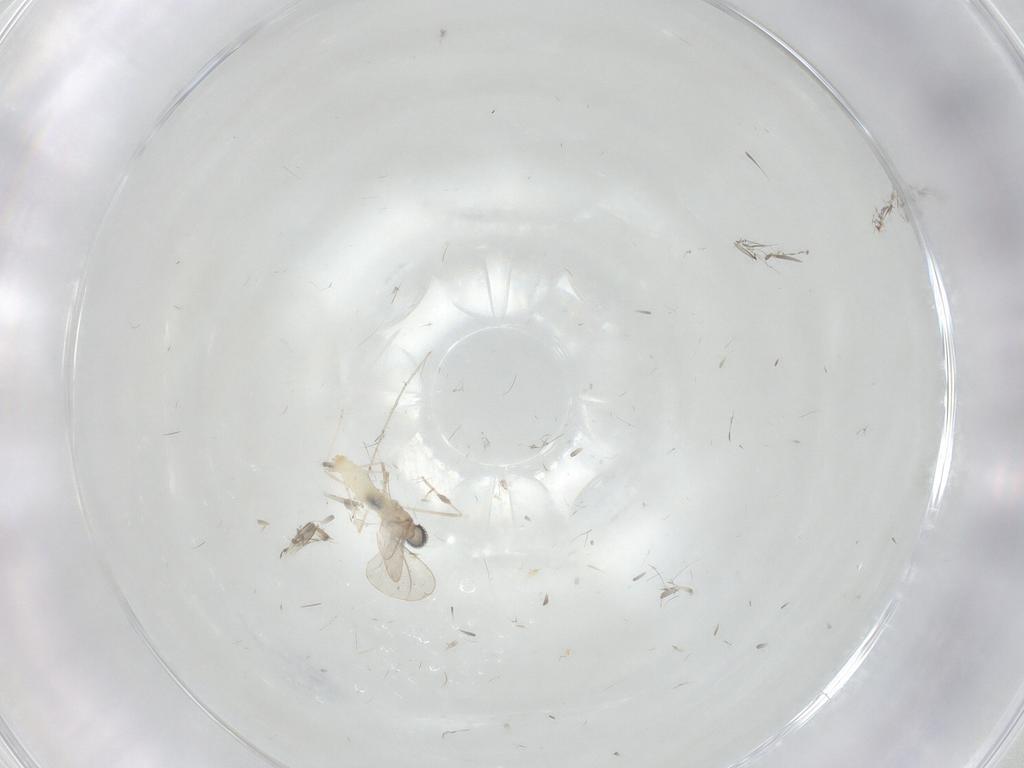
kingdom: Animalia
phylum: Arthropoda
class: Insecta
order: Diptera
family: Cecidomyiidae
